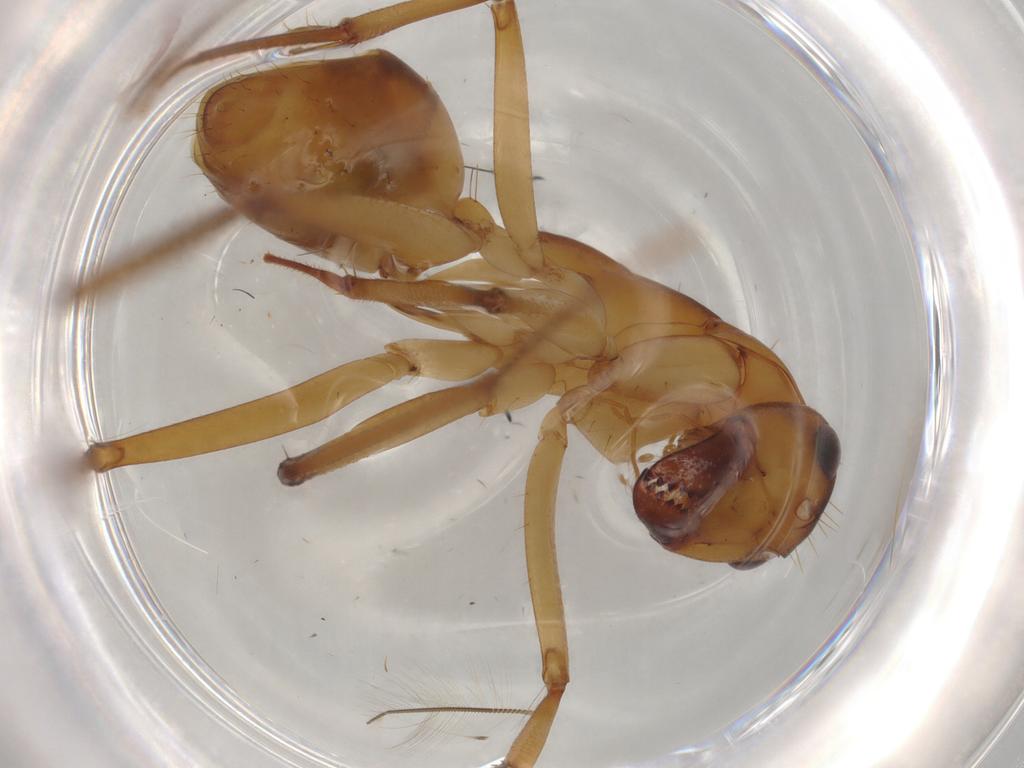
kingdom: Animalia
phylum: Arthropoda
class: Insecta
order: Hymenoptera
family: Formicidae
